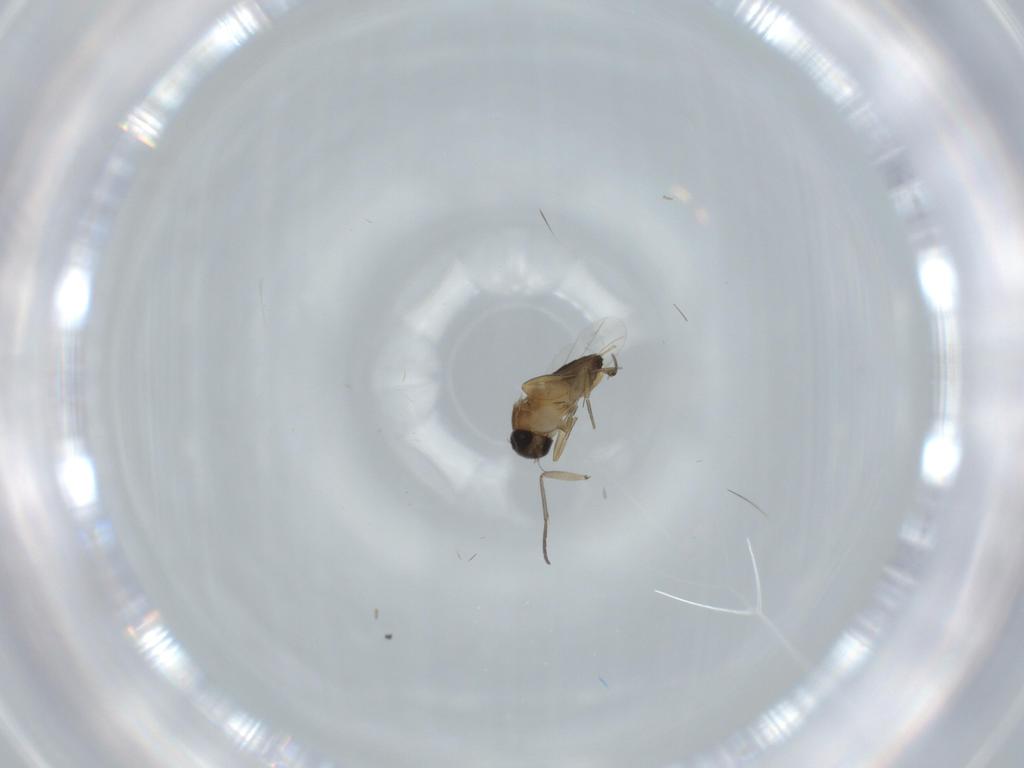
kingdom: Animalia
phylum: Arthropoda
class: Insecta
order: Diptera
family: Phoridae
